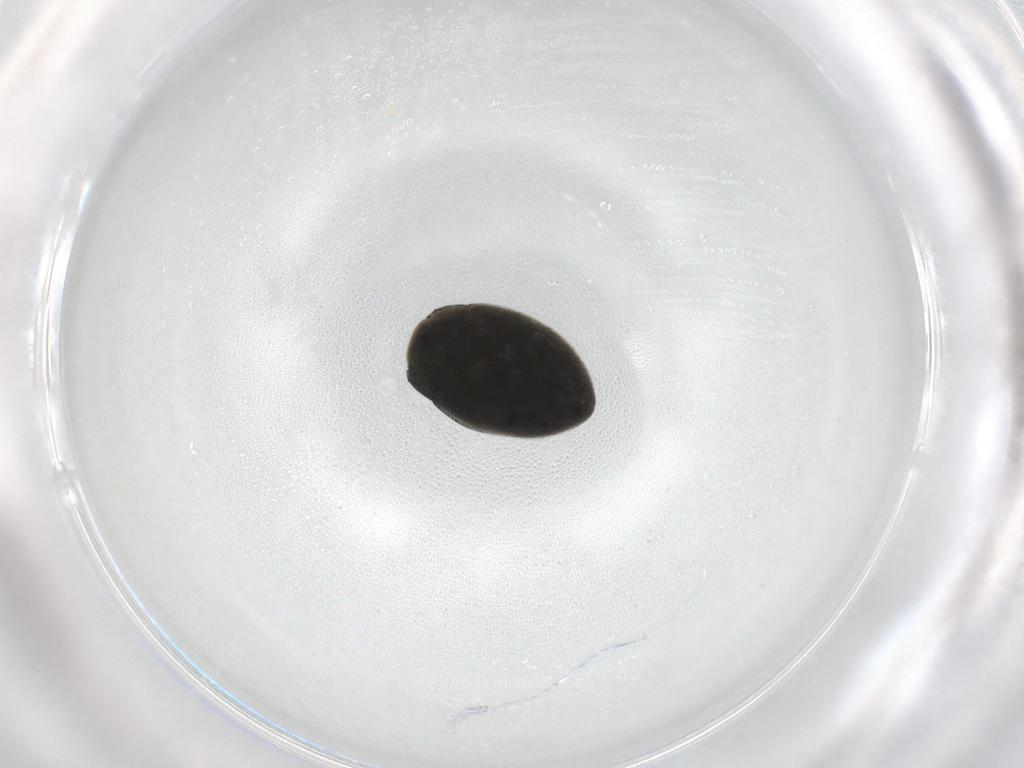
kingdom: Animalia
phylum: Arthropoda
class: Insecta
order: Coleoptera
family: Limnichidae
